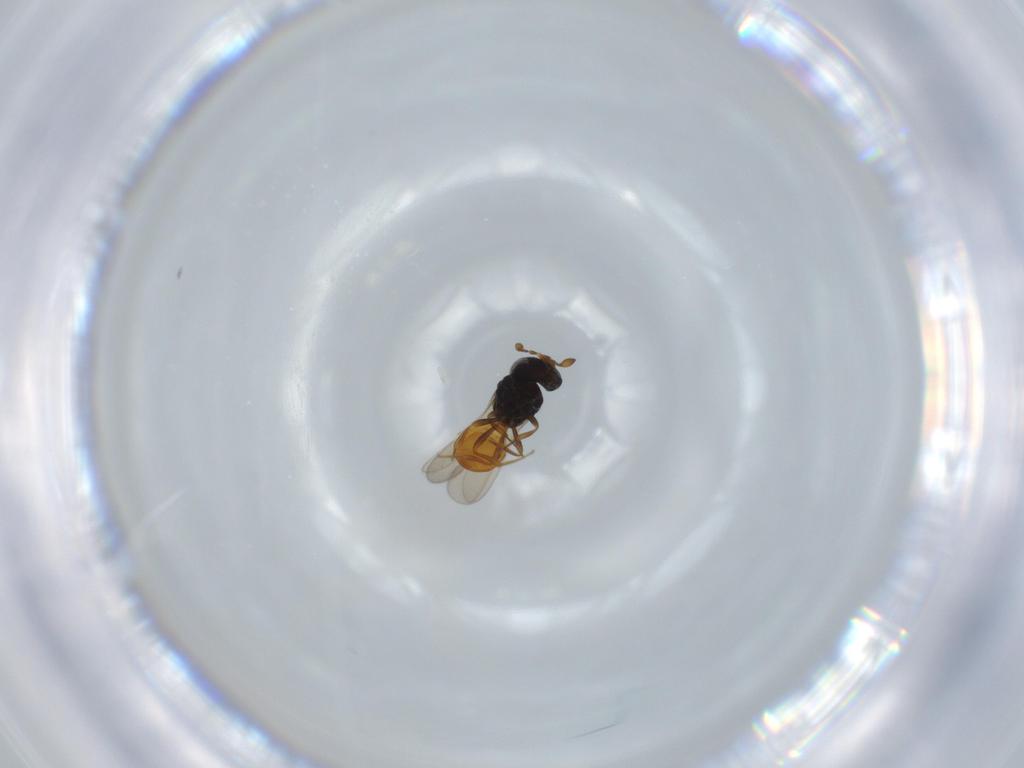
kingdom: Animalia
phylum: Arthropoda
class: Insecta
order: Hymenoptera
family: Scelionidae
